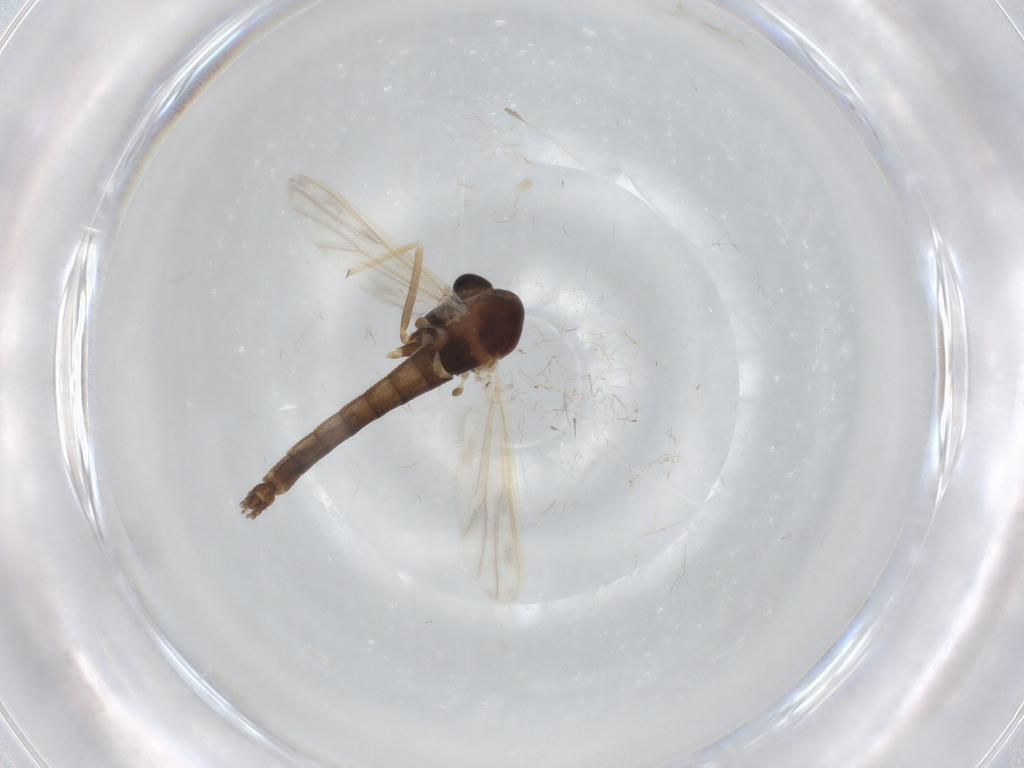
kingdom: Animalia
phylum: Arthropoda
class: Insecta
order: Diptera
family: Chironomidae
